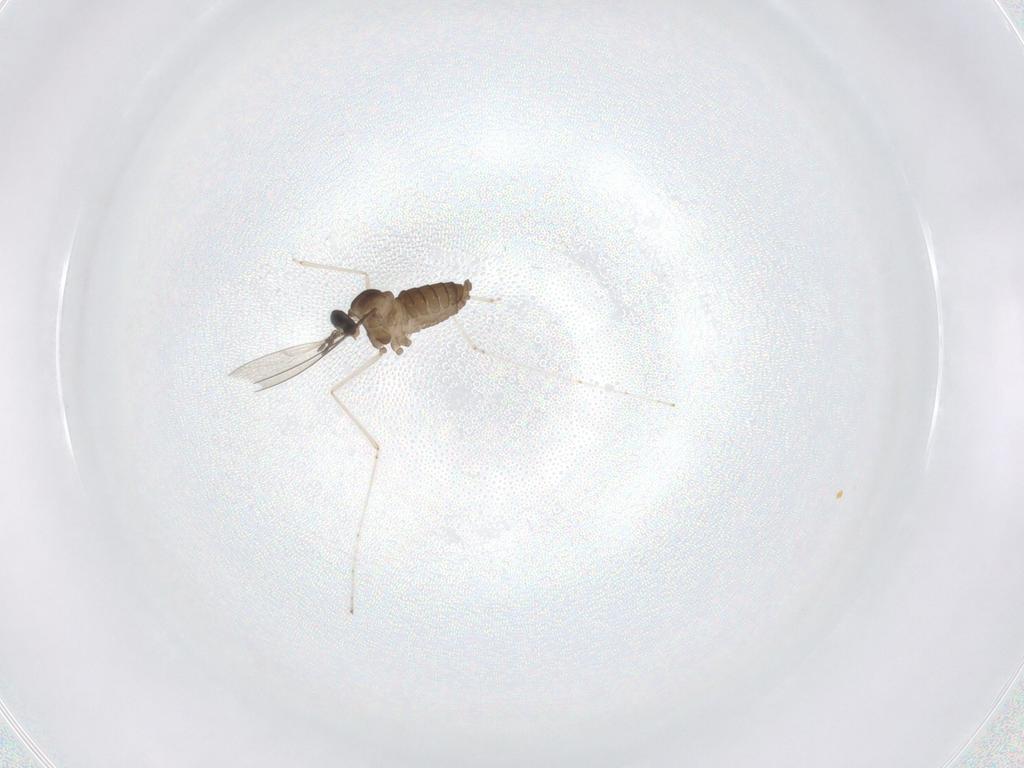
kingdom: Animalia
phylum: Arthropoda
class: Insecta
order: Diptera
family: Cecidomyiidae
